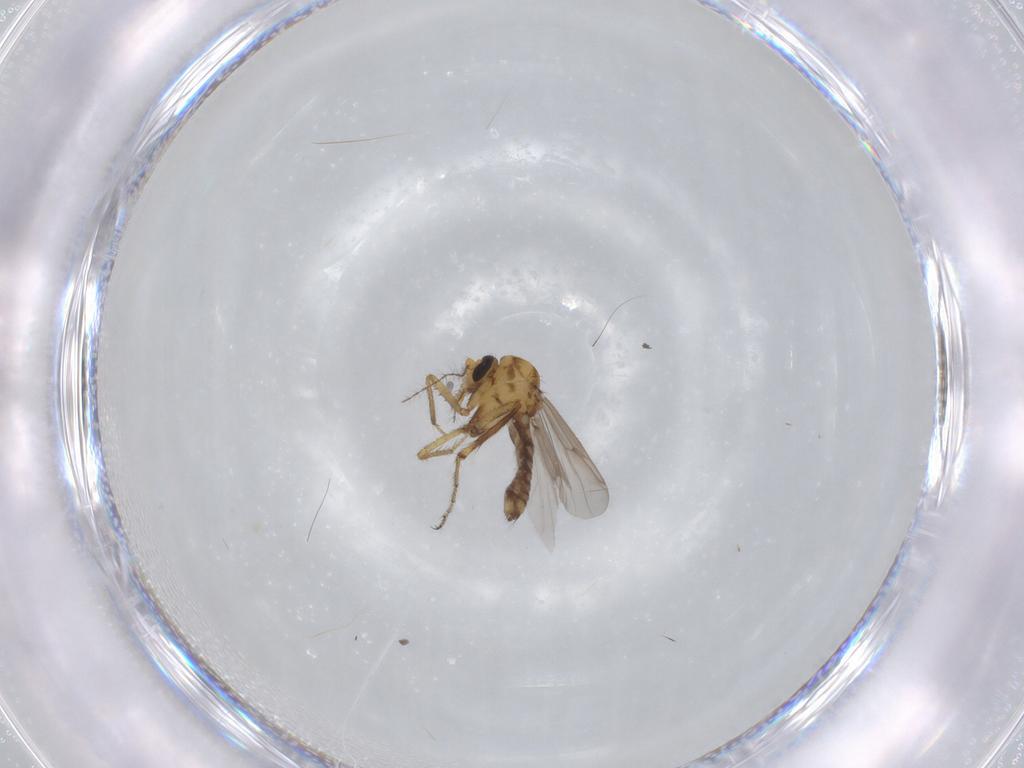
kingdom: Animalia
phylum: Arthropoda
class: Insecta
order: Diptera
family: Ceratopogonidae
